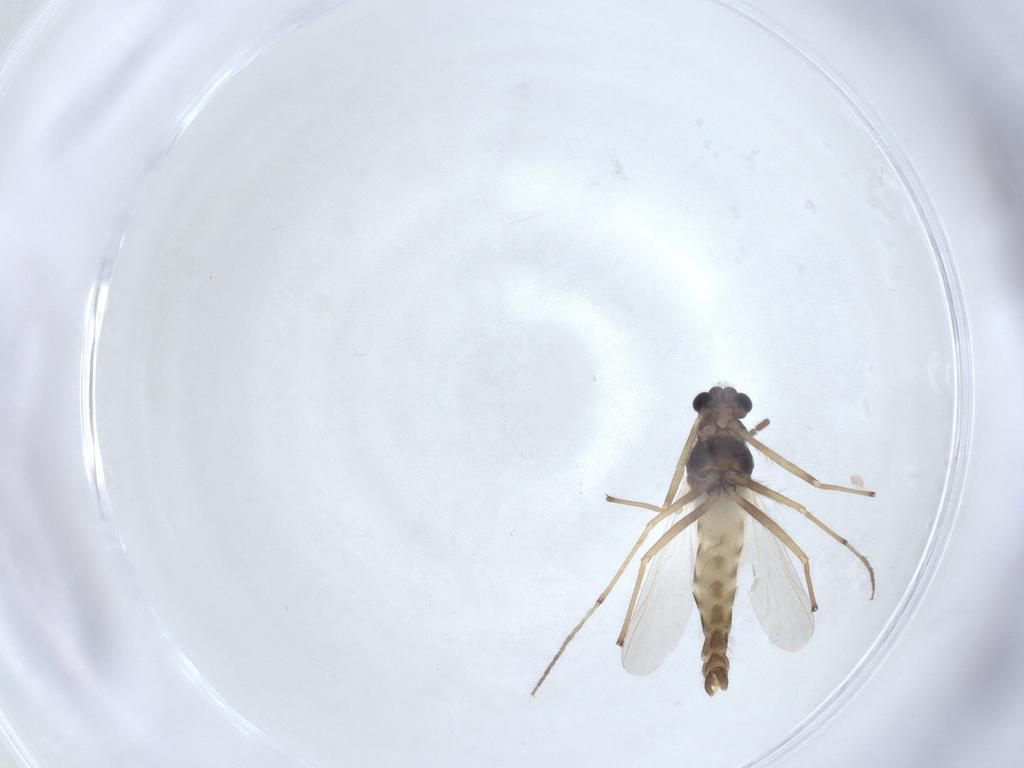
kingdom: Animalia
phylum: Arthropoda
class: Insecta
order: Diptera
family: Chironomidae
